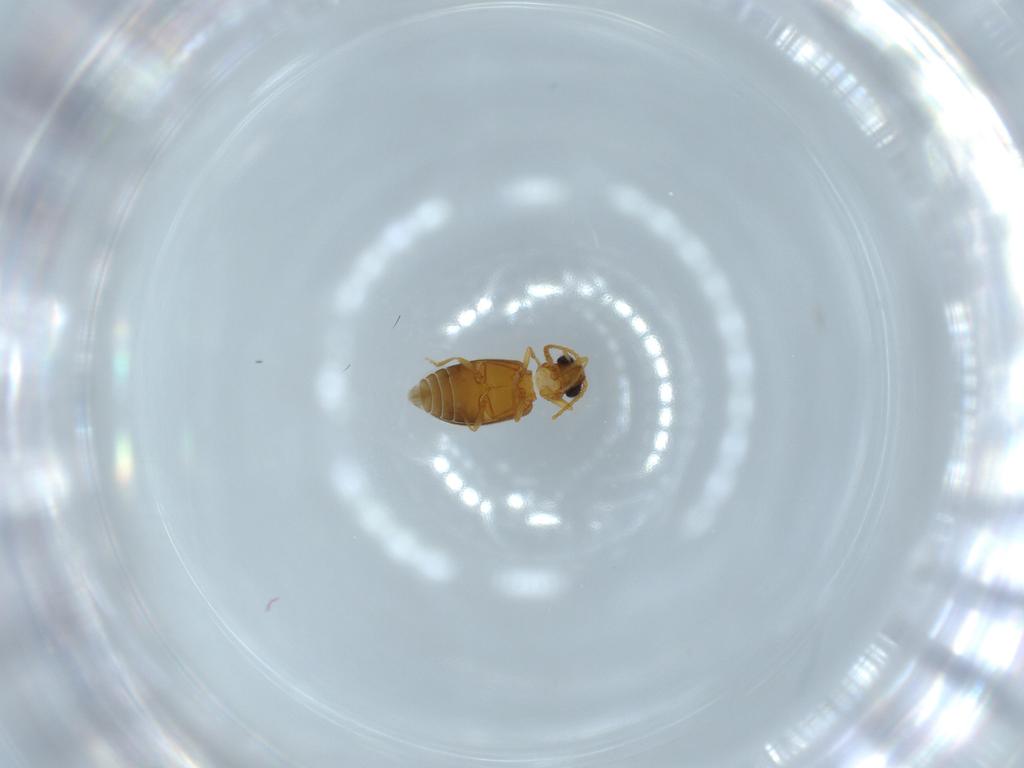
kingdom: Animalia
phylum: Arthropoda
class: Insecta
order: Coleoptera
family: Aderidae
